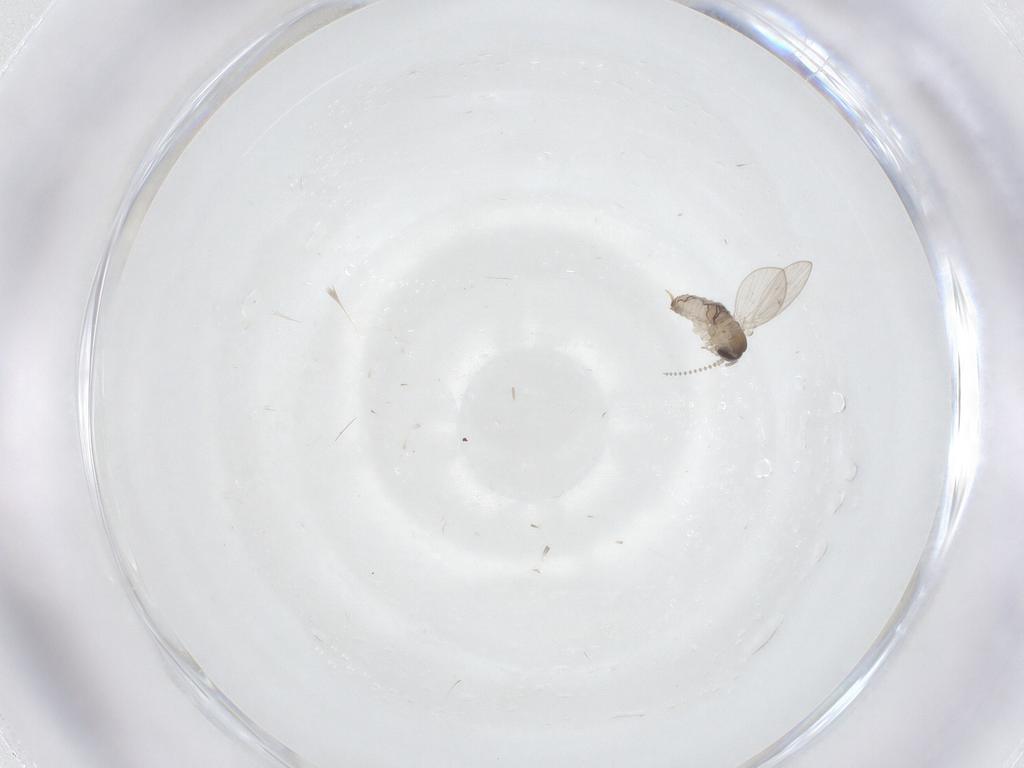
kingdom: Animalia
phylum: Arthropoda
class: Insecta
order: Diptera
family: Psychodidae
